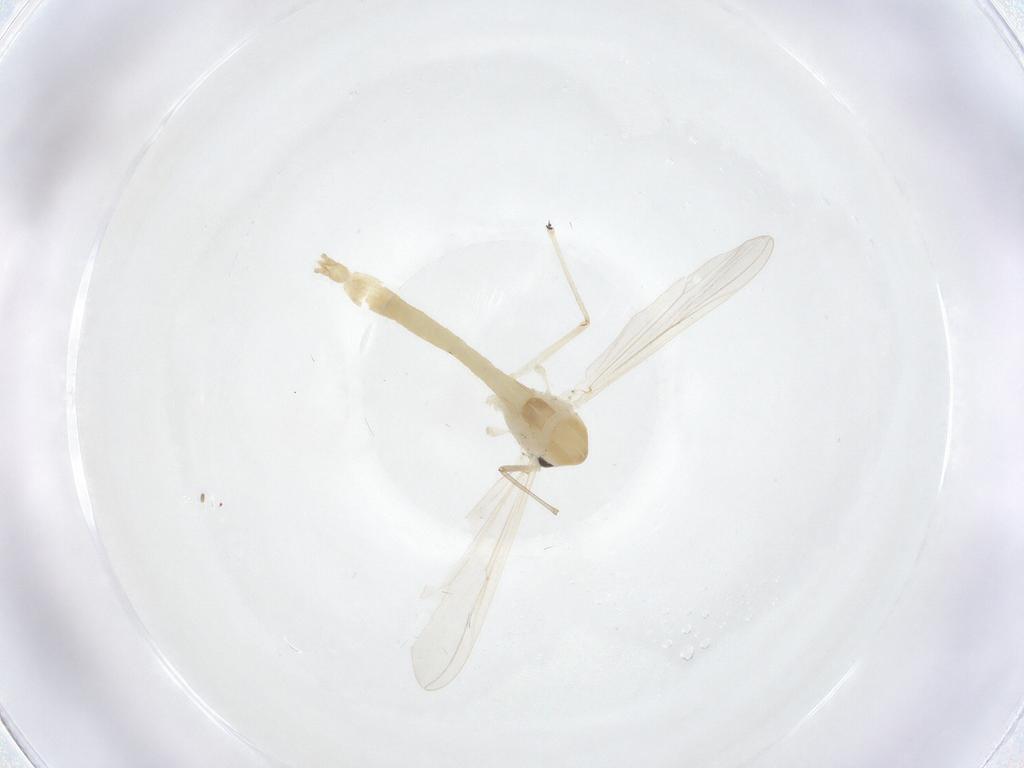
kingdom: Animalia
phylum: Arthropoda
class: Insecta
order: Diptera
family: Chironomidae
